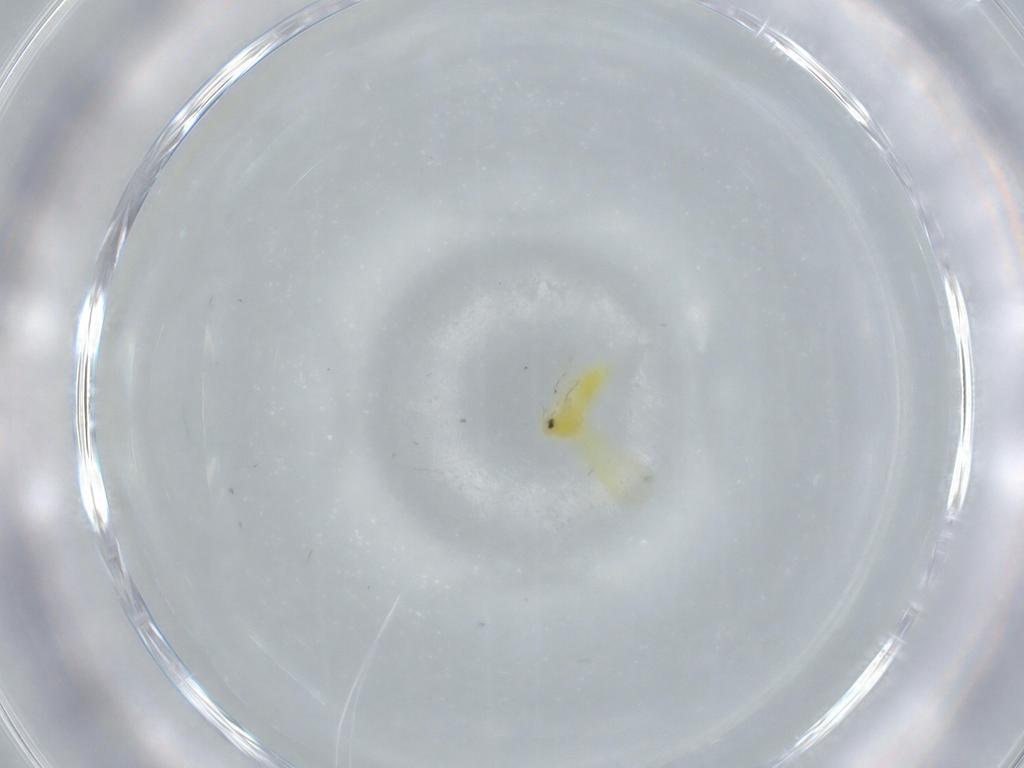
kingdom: Animalia
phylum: Arthropoda
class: Insecta
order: Hemiptera
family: Aleyrodidae
